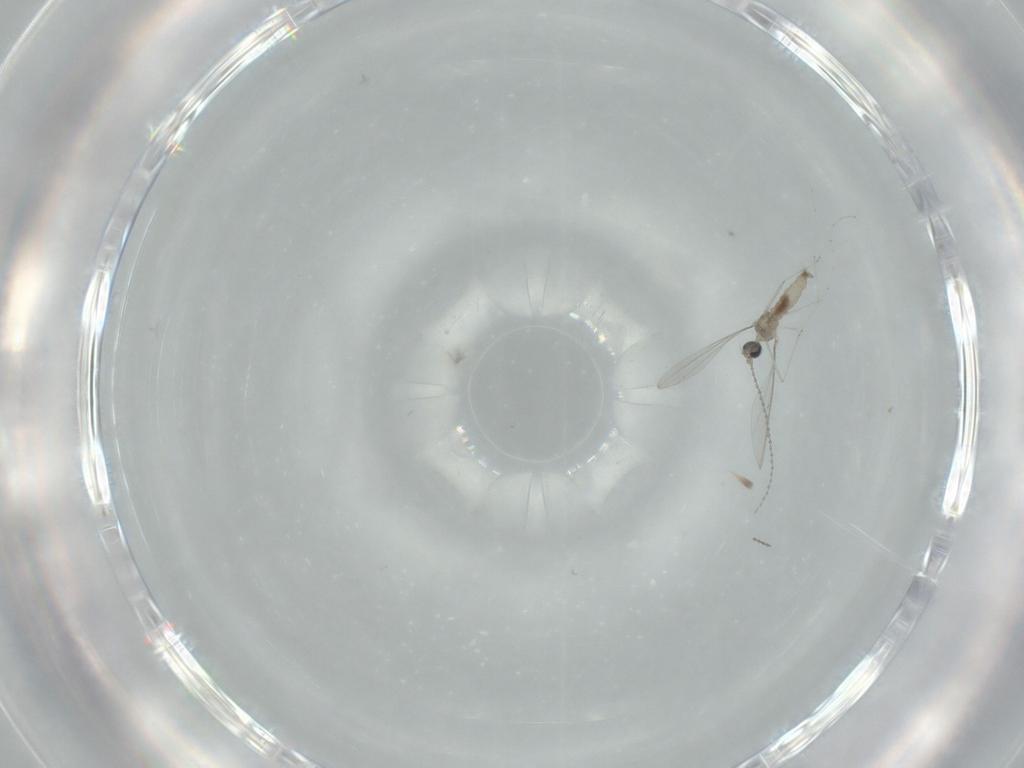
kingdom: Animalia
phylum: Arthropoda
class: Insecta
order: Diptera
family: Cecidomyiidae
